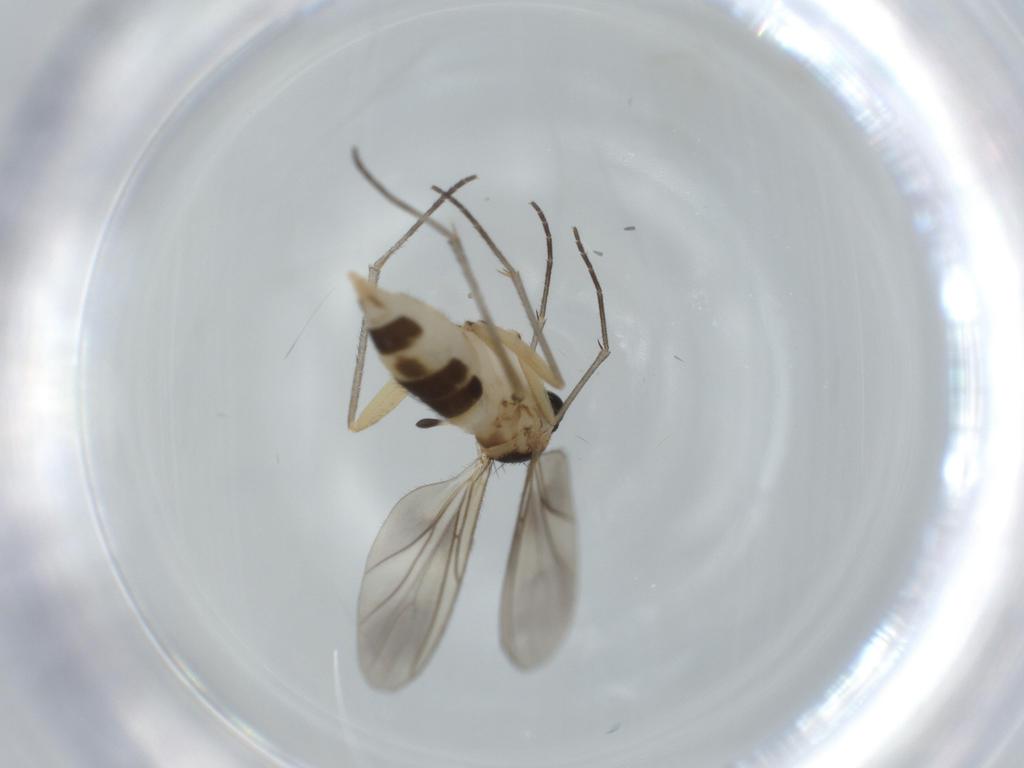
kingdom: Animalia
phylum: Arthropoda
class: Insecta
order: Diptera
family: Sciaridae
